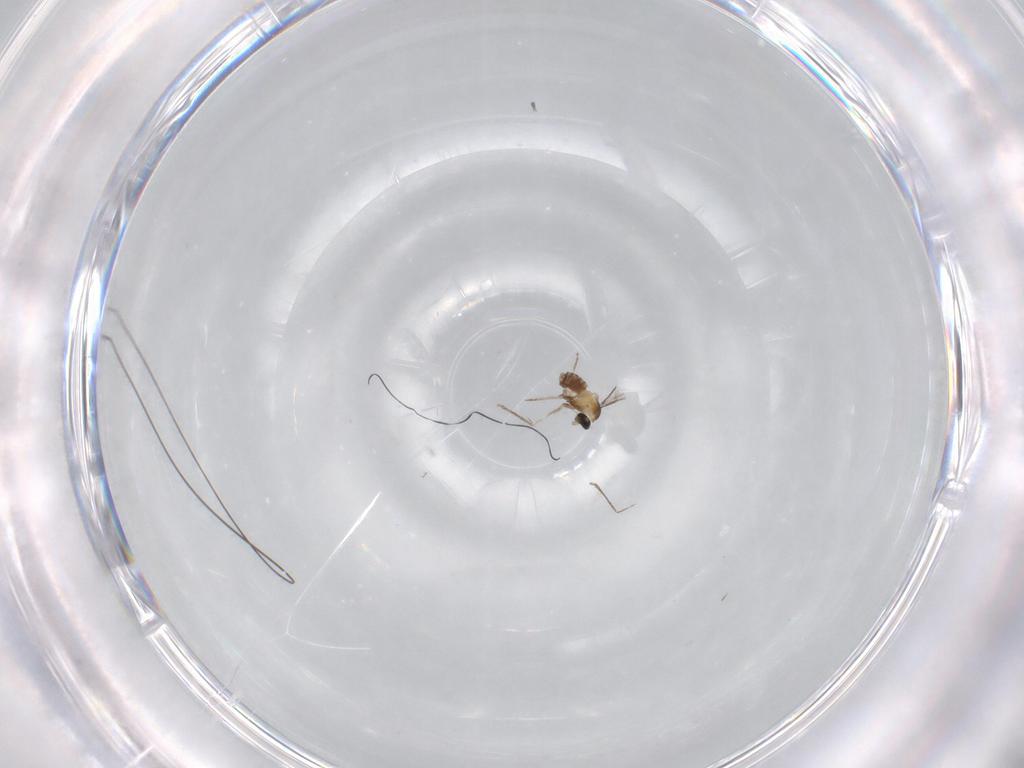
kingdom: Animalia
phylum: Arthropoda
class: Insecta
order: Diptera
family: Cecidomyiidae
